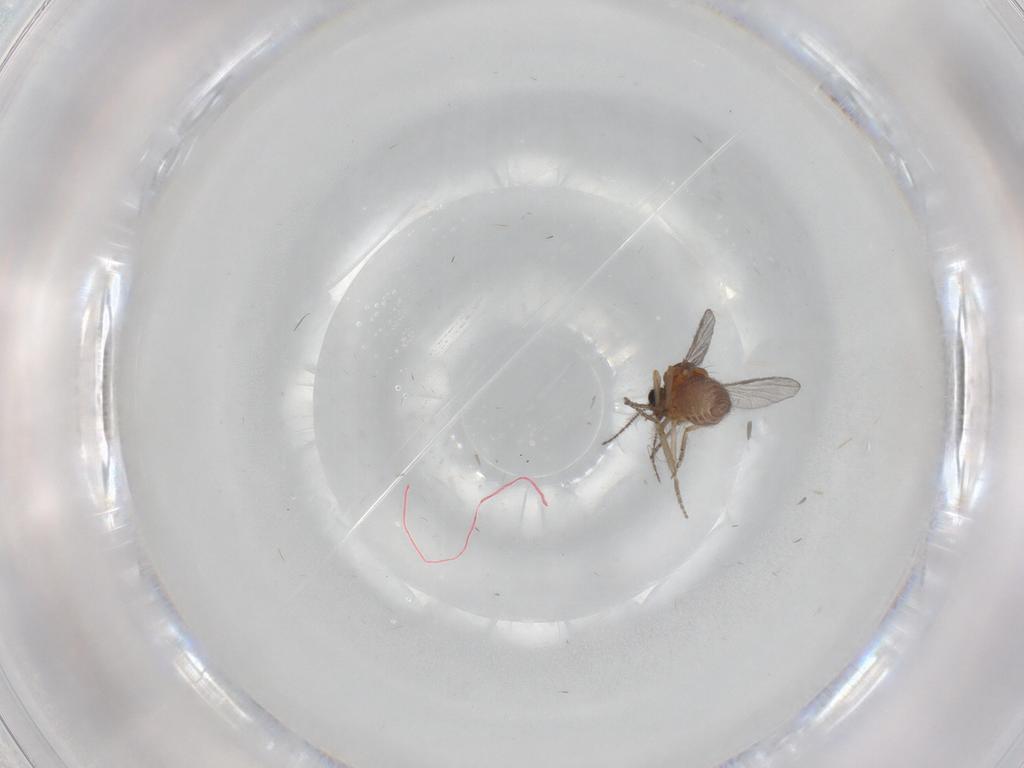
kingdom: Animalia
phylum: Arthropoda
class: Insecta
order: Diptera
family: Ceratopogonidae
